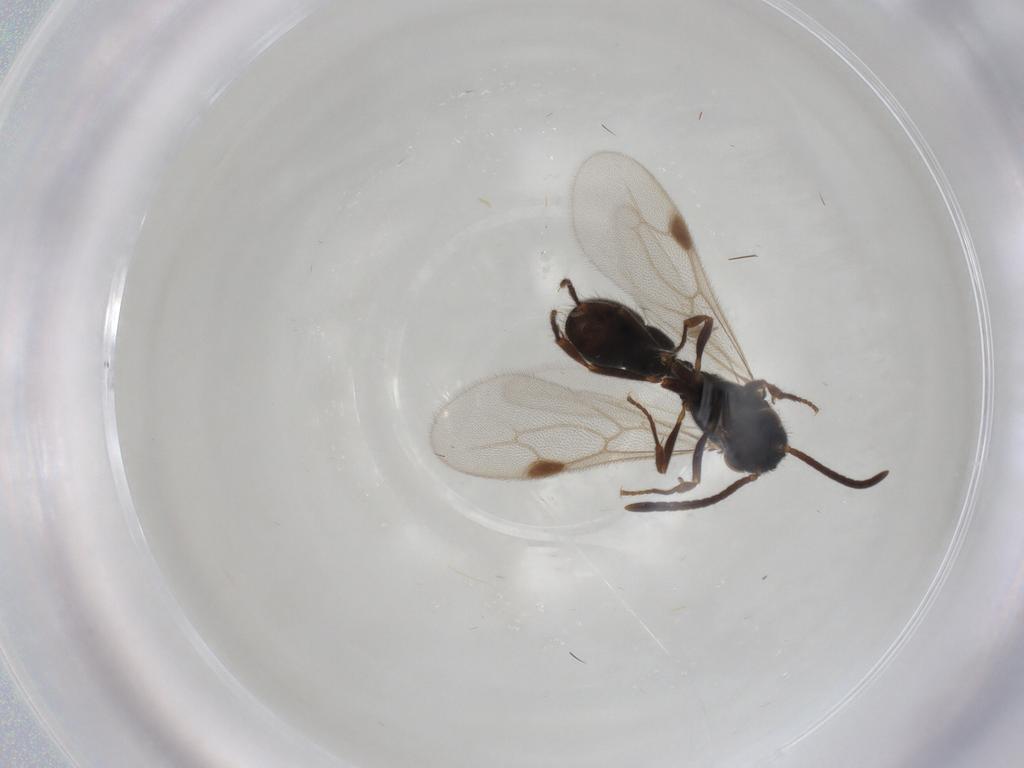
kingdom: Animalia
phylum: Arthropoda
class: Insecta
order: Hymenoptera
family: Formicidae
